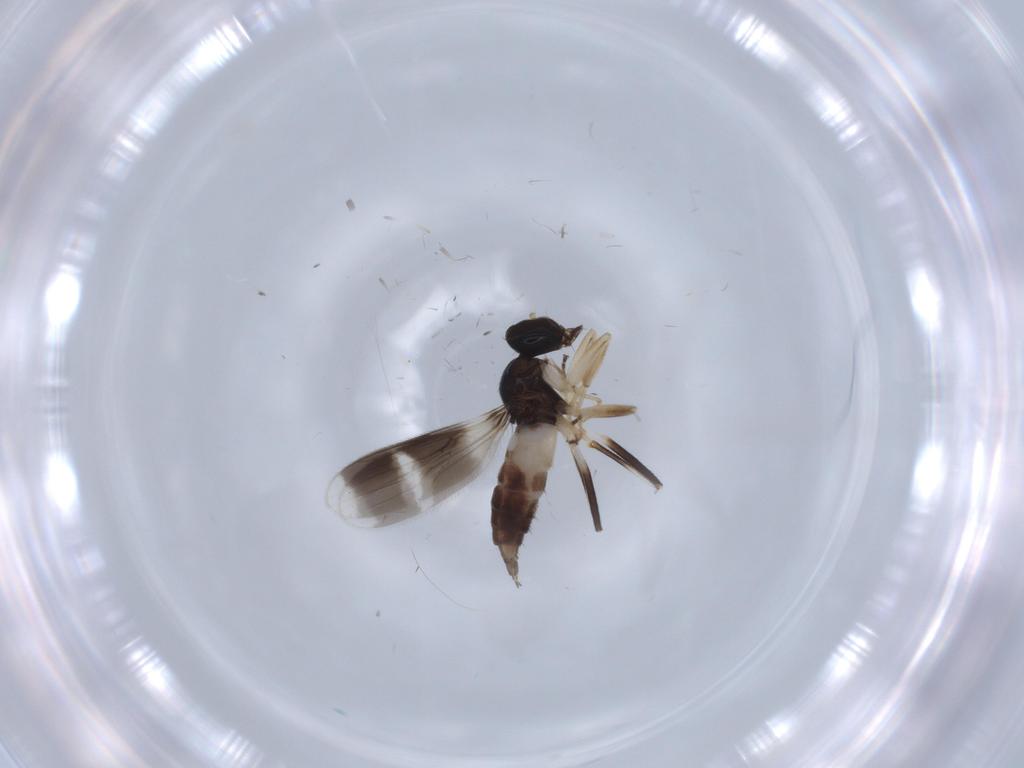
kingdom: Animalia
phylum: Arthropoda
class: Insecta
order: Diptera
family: Hybotidae
